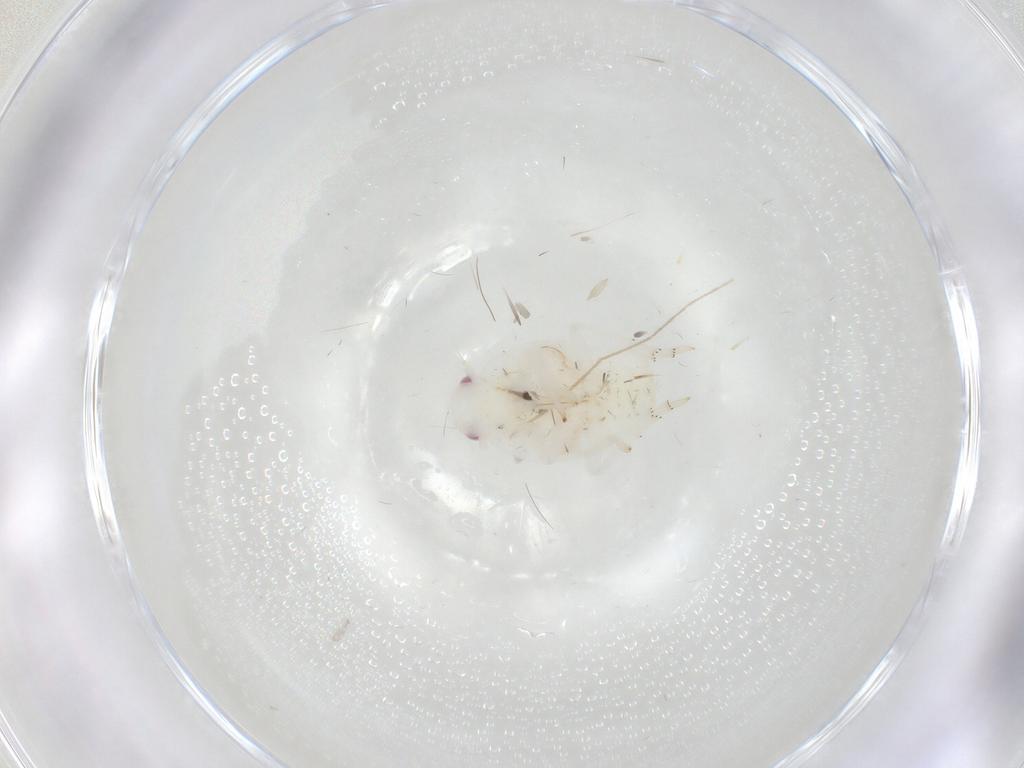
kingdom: Animalia
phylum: Arthropoda
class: Insecta
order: Hemiptera
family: Flatidae
